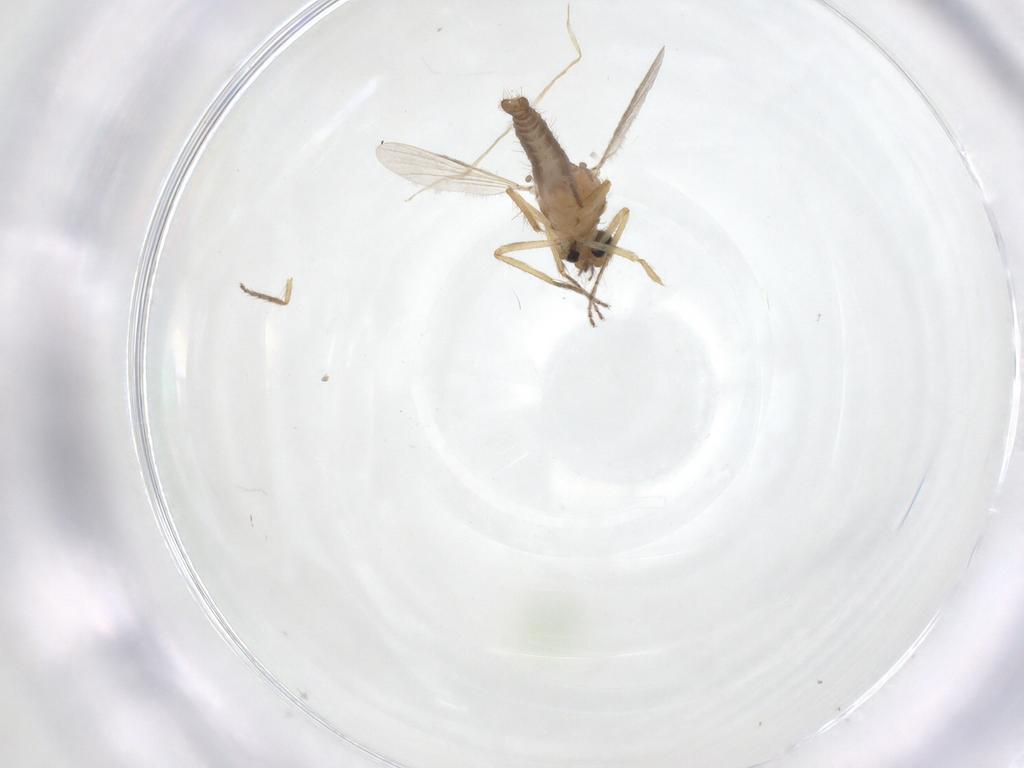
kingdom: Animalia
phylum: Arthropoda
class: Insecta
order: Diptera
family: Ceratopogonidae
